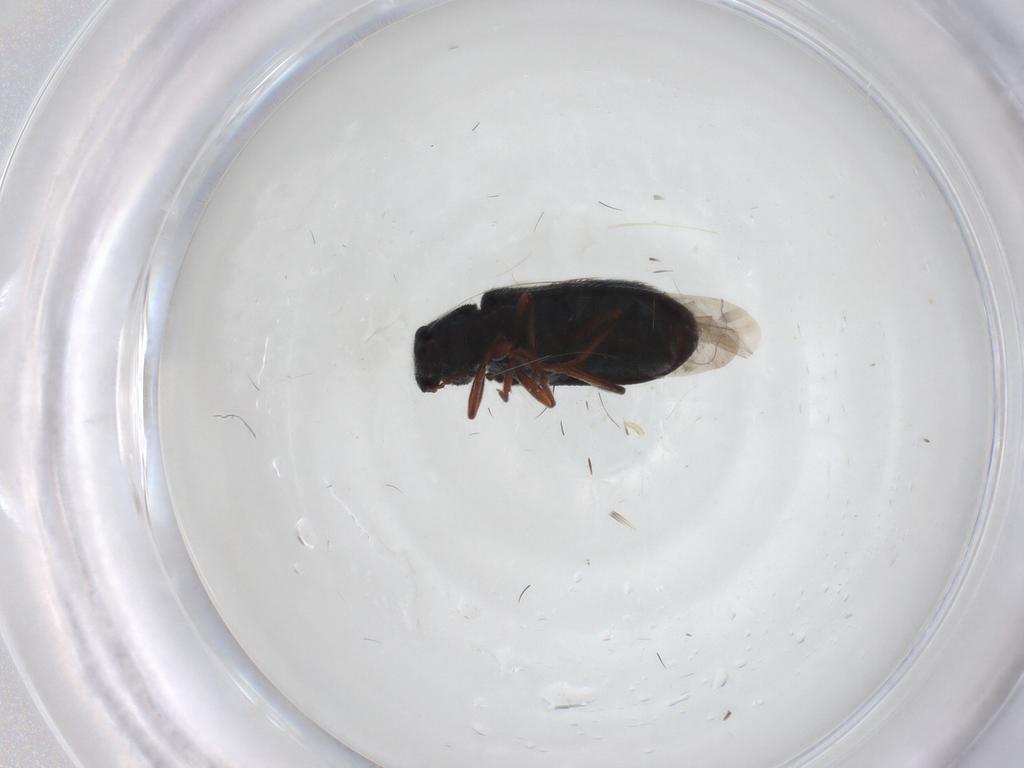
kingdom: Animalia
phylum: Arthropoda
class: Insecta
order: Coleoptera
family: Melyridae
